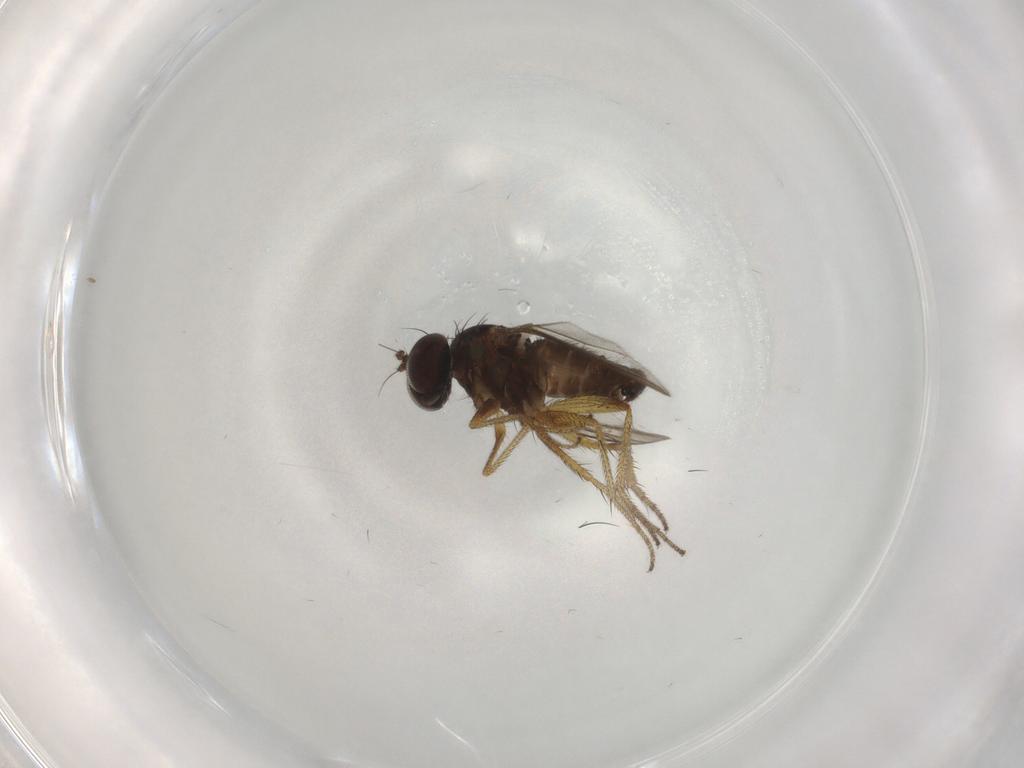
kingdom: Animalia
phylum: Arthropoda
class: Insecta
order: Diptera
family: Dolichopodidae
